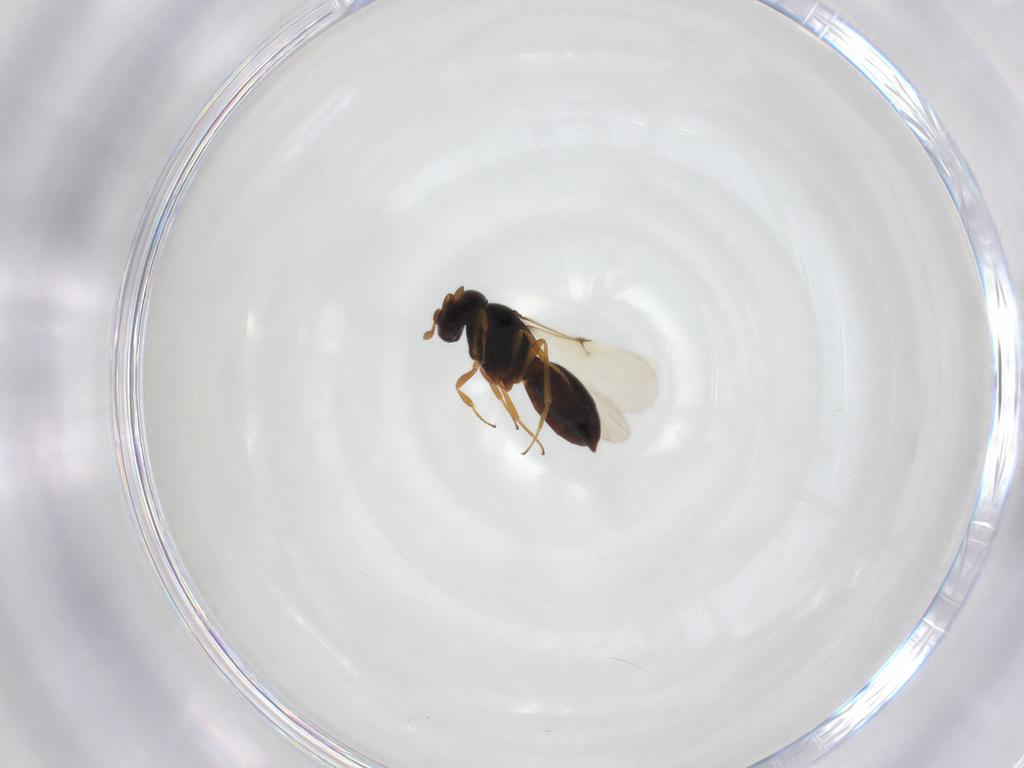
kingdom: Animalia
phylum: Arthropoda
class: Insecta
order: Hymenoptera
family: Scelionidae
